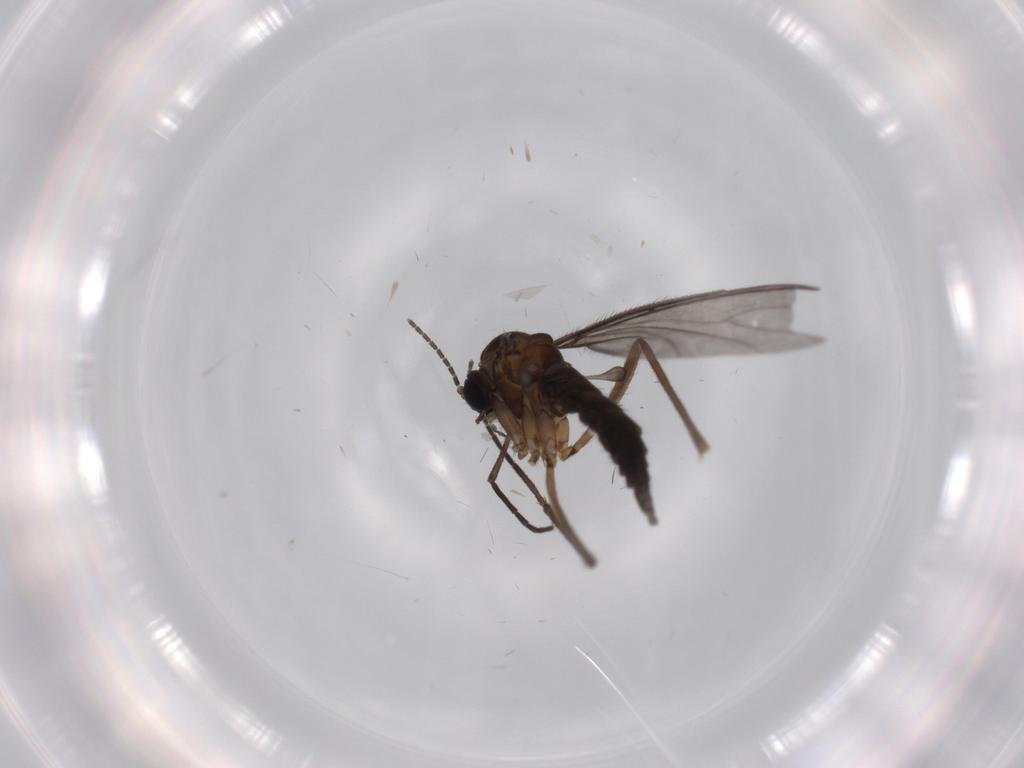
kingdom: Animalia
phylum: Arthropoda
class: Insecta
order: Diptera
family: Sciaridae
